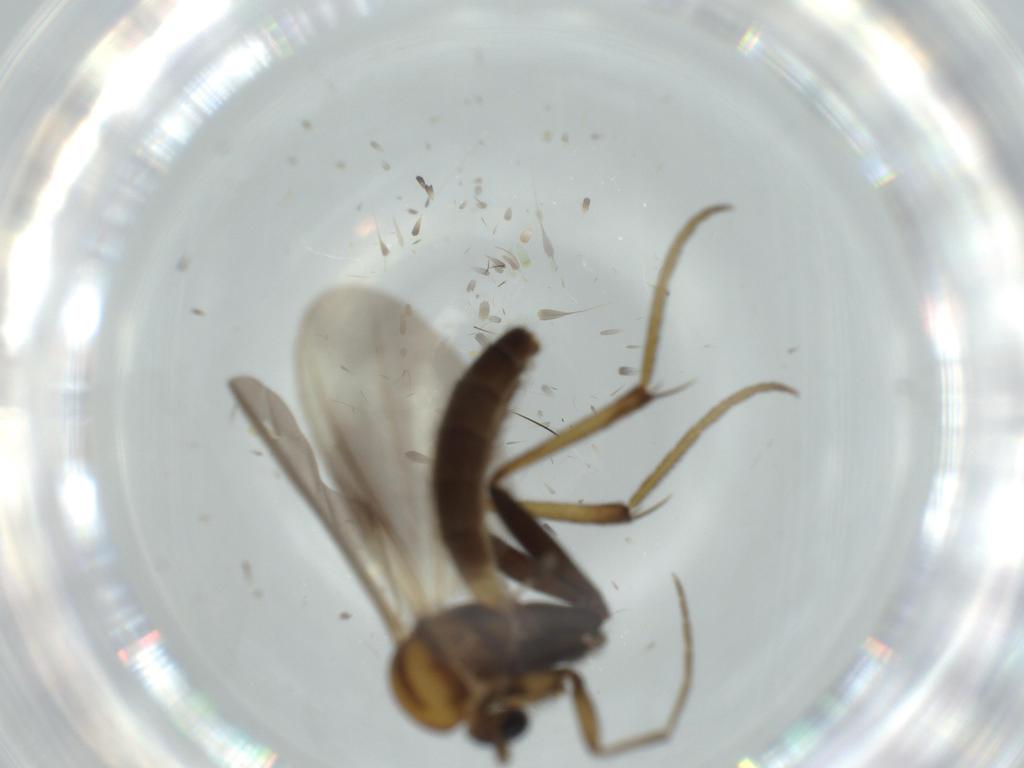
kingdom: Animalia
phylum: Arthropoda
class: Insecta
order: Diptera
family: Ceratopogonidae
